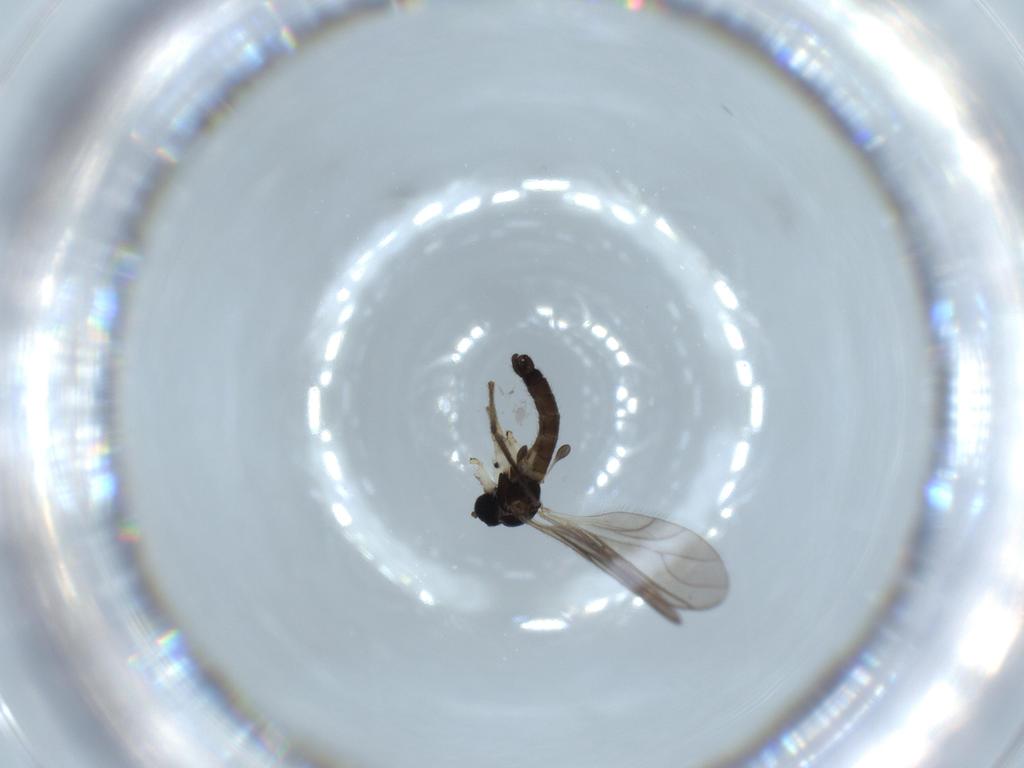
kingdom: Animalia
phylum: Arthropoda
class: Insecta
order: Diptera
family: Sciaridae
